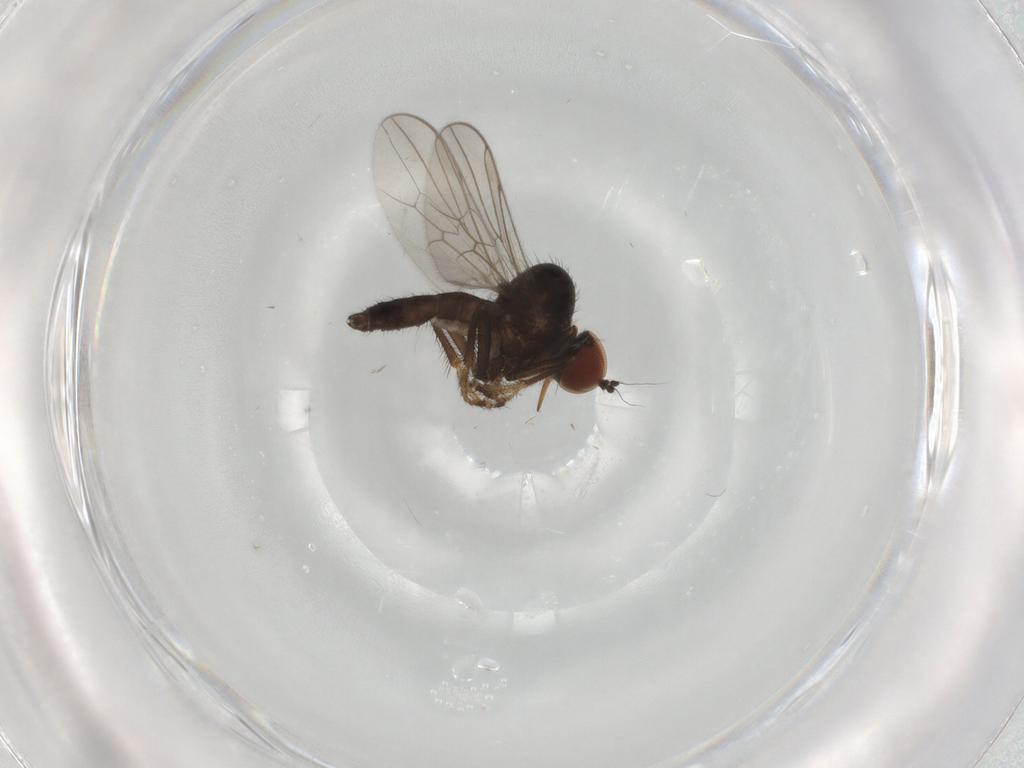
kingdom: Animalia
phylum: Arthropoda
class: Insecta
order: Diptera
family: Hybotidae
